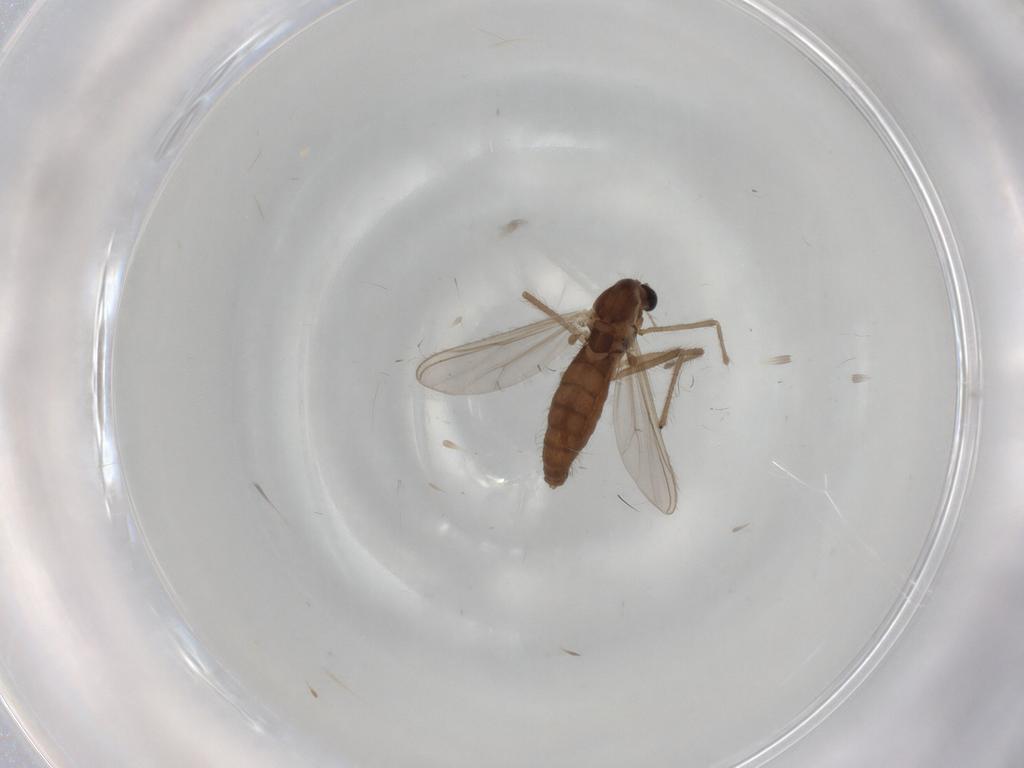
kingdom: Animalia
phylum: Arthropoda
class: Insecta
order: Diptera
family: Chironomidae
